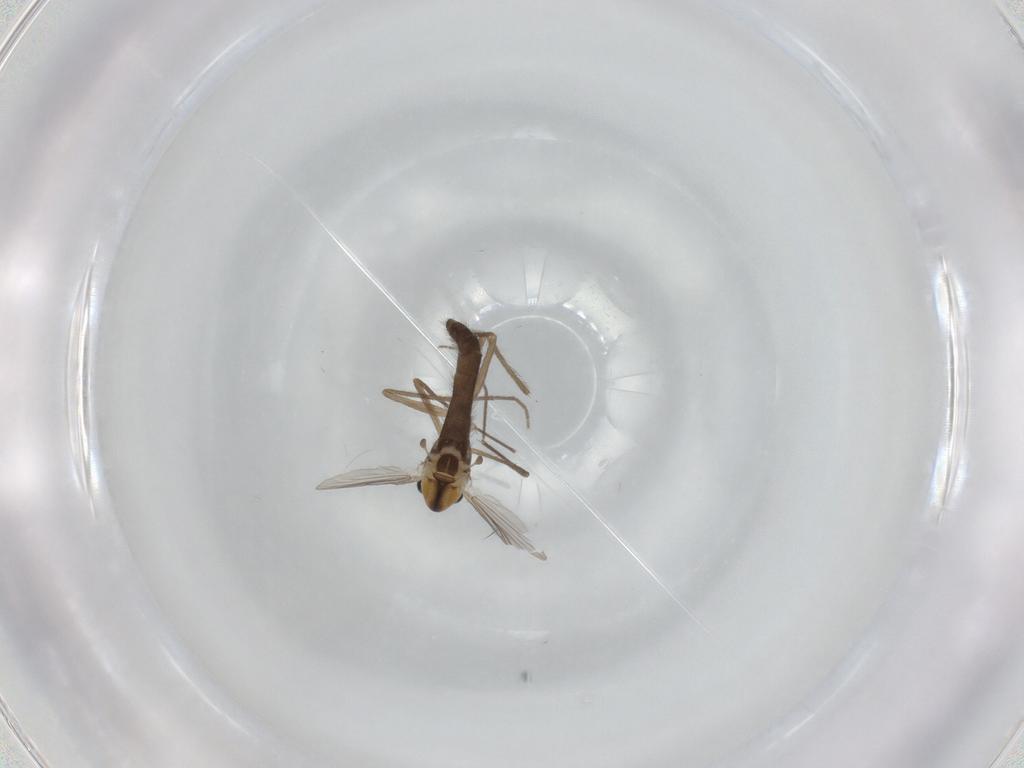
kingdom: Animalia
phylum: Arthropoda
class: Insecta
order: Diptera
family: Chironomidae
